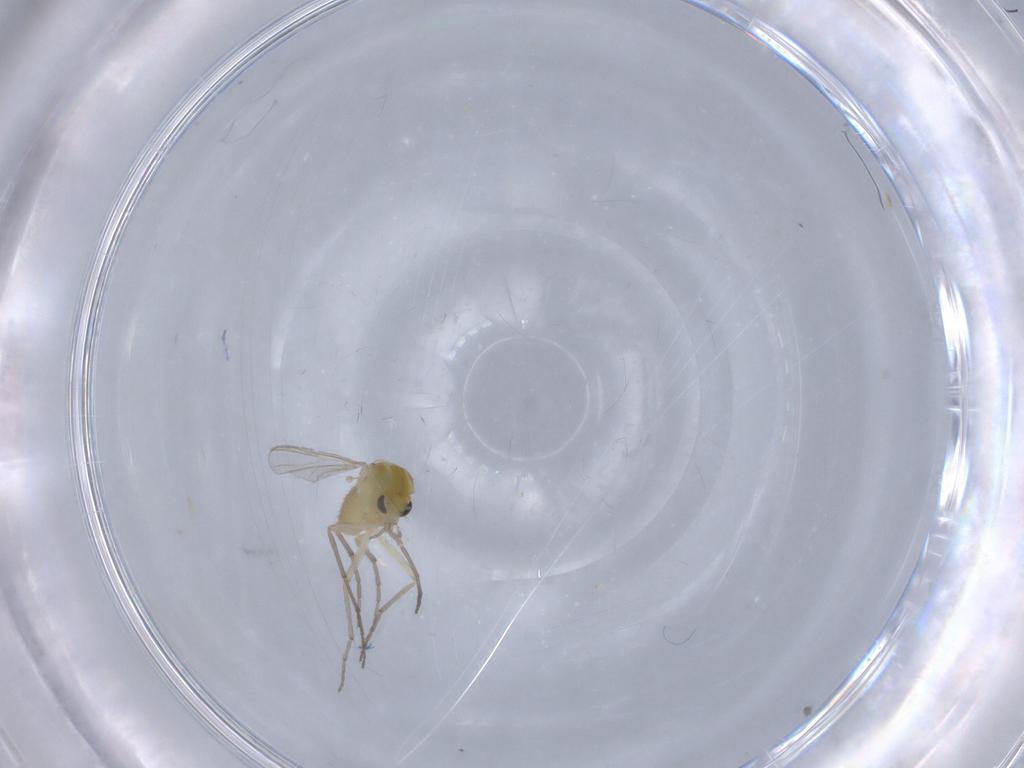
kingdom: Animalia
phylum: Arthropoda
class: Insecta
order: Diptera
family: Chironomidae
